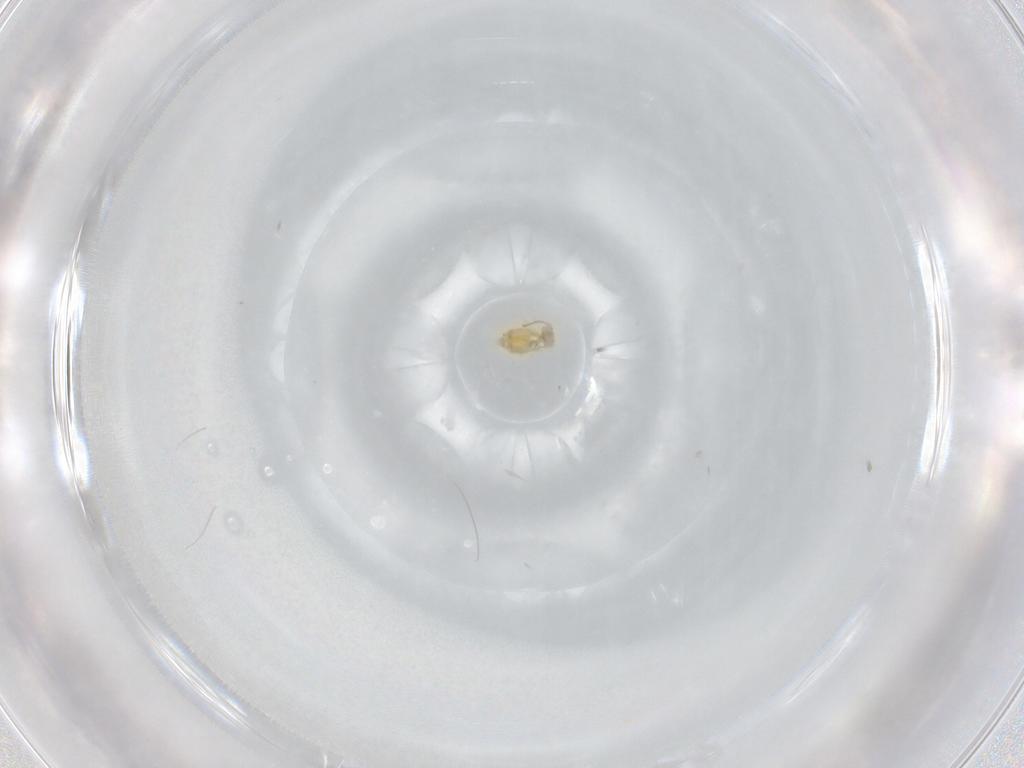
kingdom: Animalia
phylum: Arthropoda
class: Collembola
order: Symphypleona
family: Bourletiellidae
